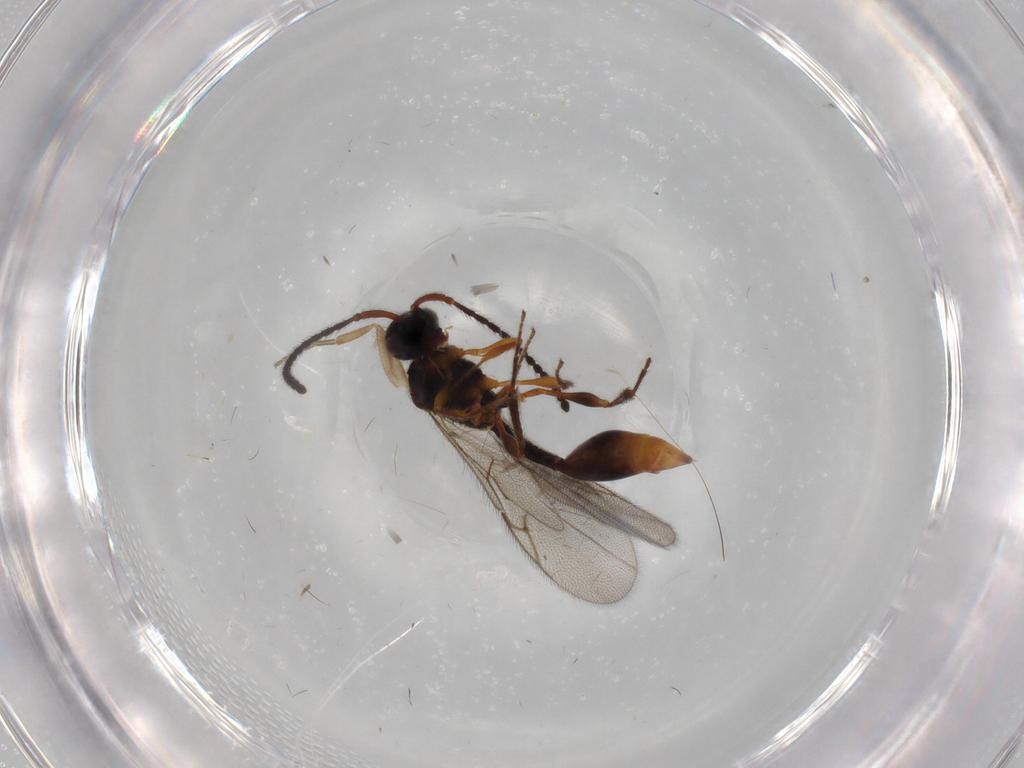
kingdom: Animalia
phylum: Arthropoda
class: Insecta
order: Hymenoptera
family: Diapriidae
